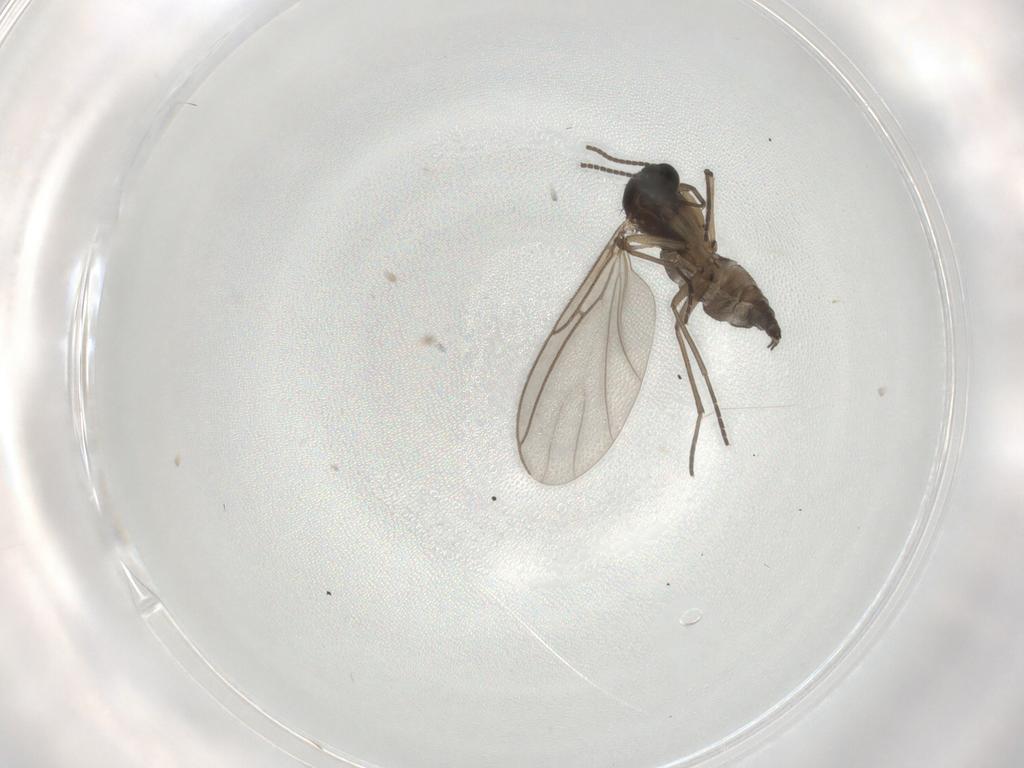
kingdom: Animalia
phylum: Arthropoda
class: Insecta
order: Diptera
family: Sciaridae
